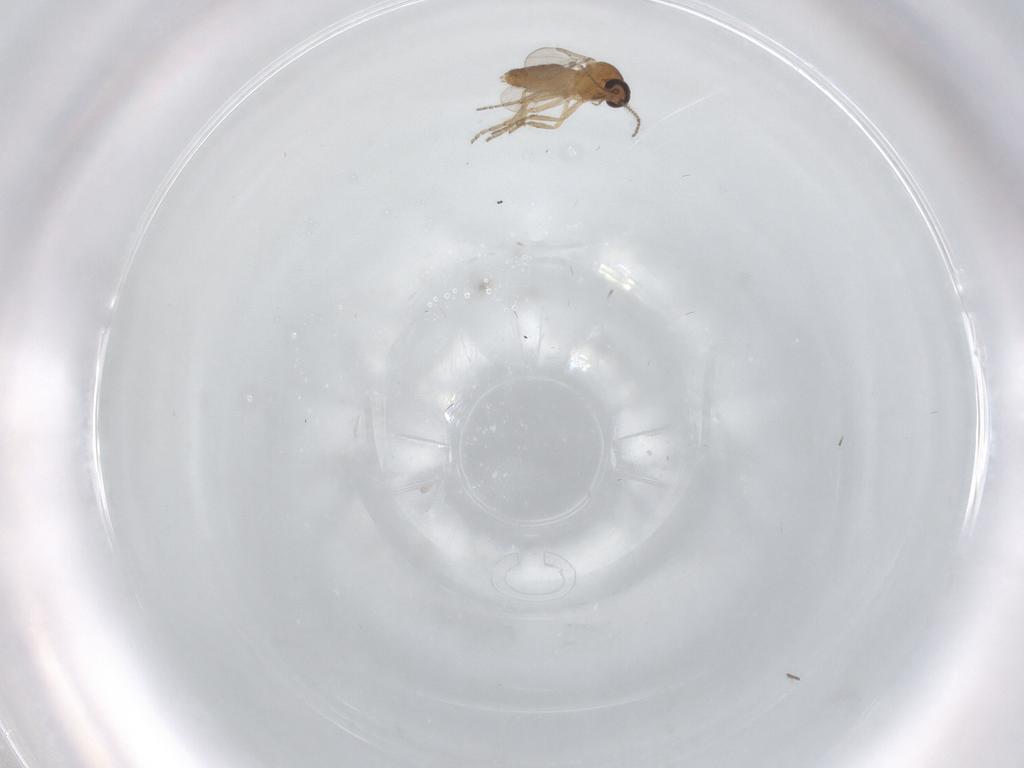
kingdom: Animalia
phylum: Arthropoda
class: Insecta
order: Diptera
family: Ceratopogonidae
